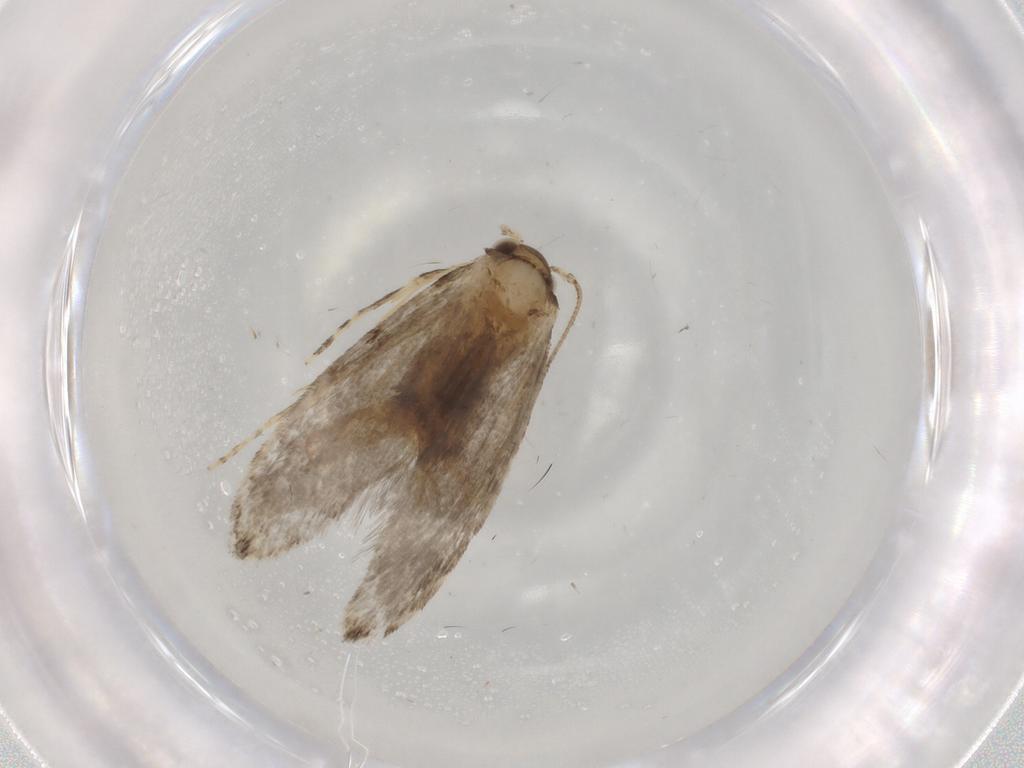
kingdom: Animalia
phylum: Arthropoda
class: Insecta
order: Lepidoptera
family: Tineidae
